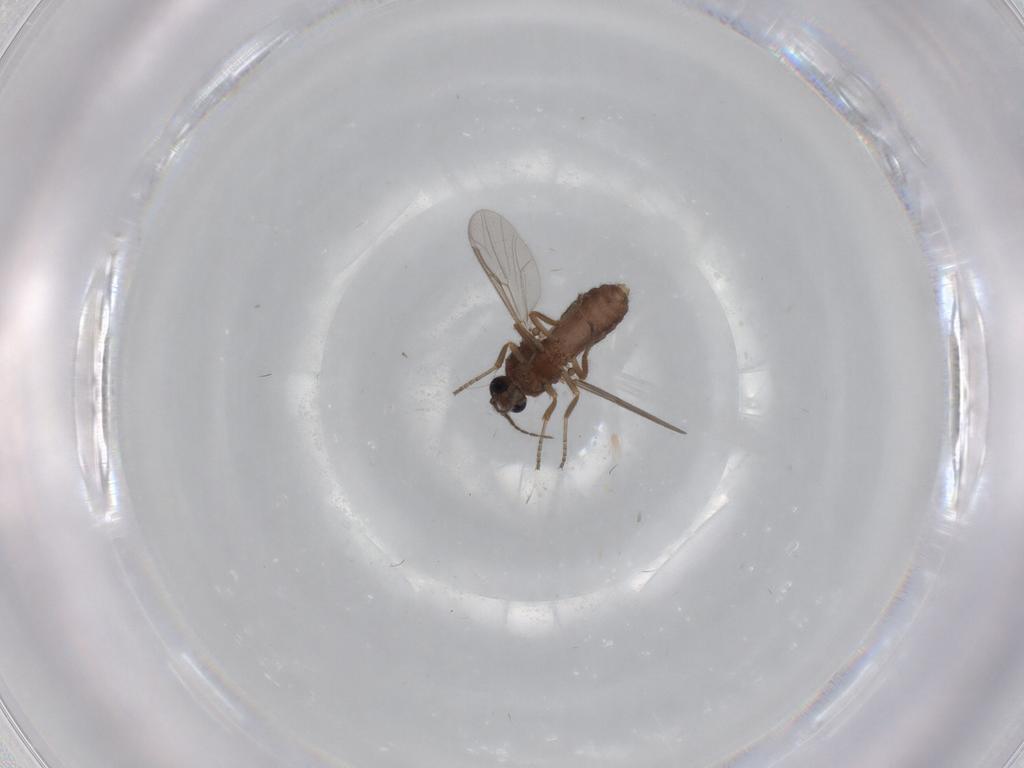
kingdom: Animalia
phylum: Arthropoda
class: Insecta
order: Diptera
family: Ceratopogonidae
